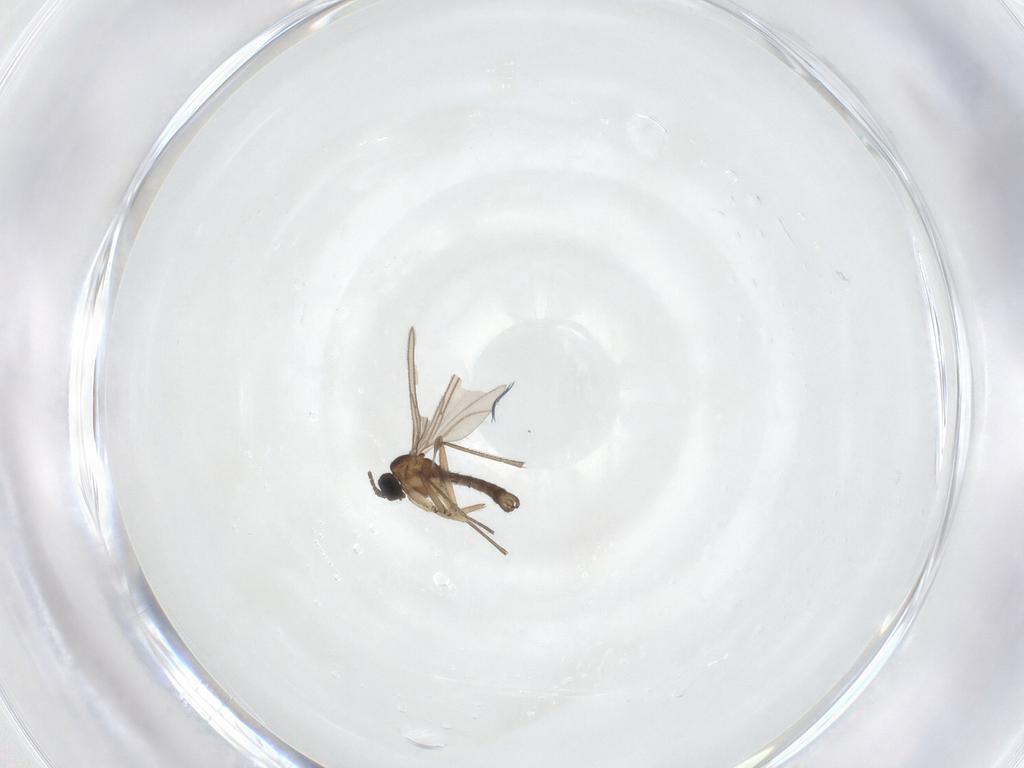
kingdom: Animalia
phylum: Arthropoda
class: Insecta
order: Diptera
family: Sciaridae
